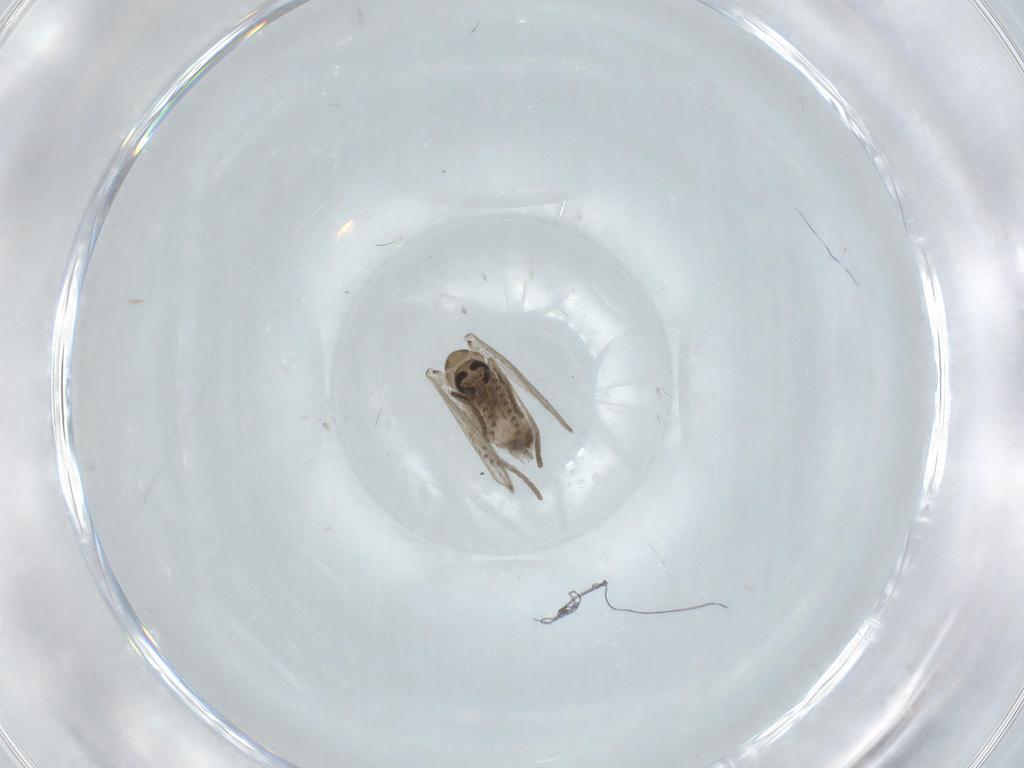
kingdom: Animalia
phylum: Arthropoda
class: Insecta
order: Diptera
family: Psychodidae
